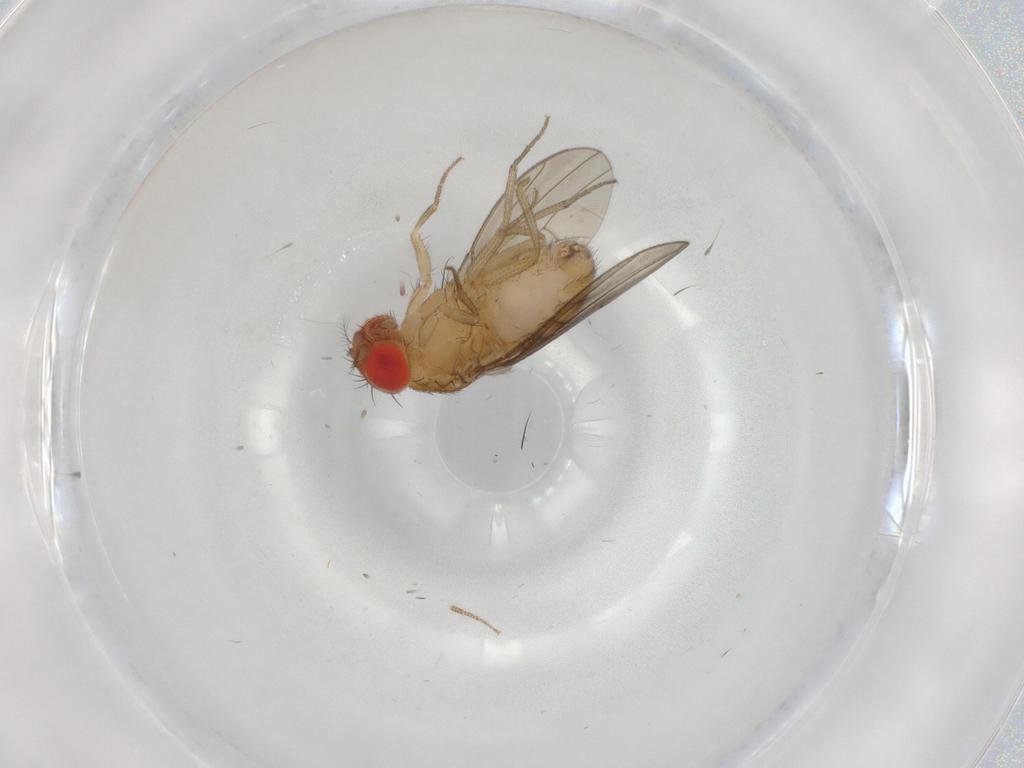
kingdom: Animalia
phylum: Arthropoda
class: Insecta
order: Diptera
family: Drosophilidae
